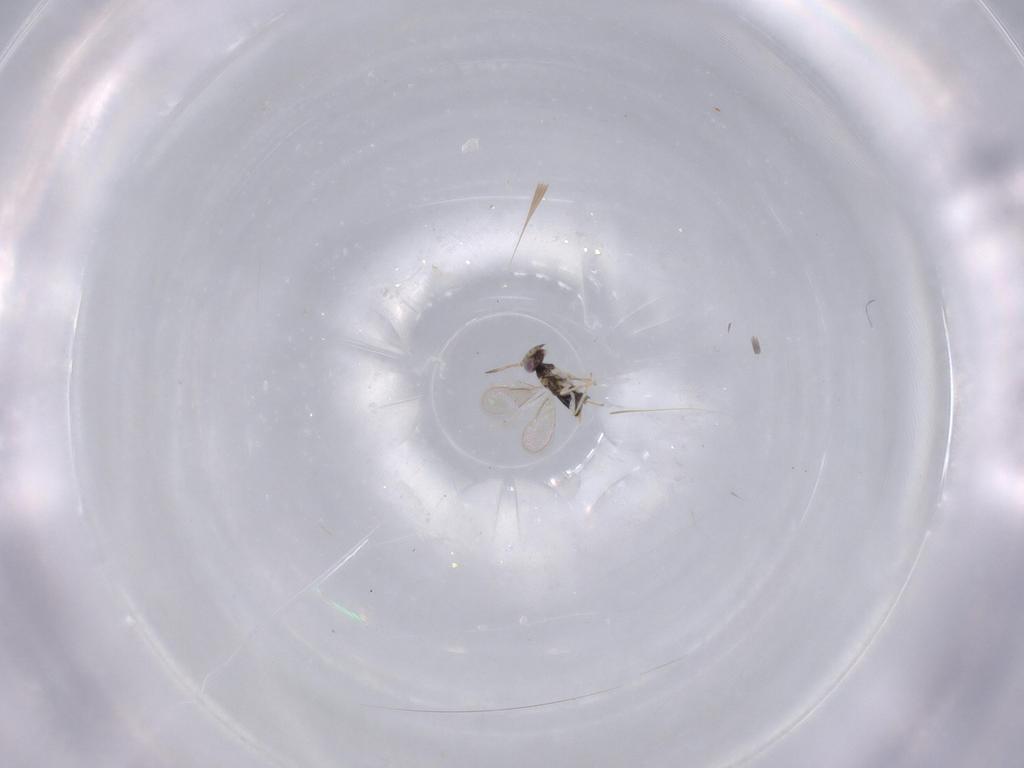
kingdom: Animalia
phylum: Arthropoda
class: Insecta
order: Hymenoptera
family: Aphelinidae
